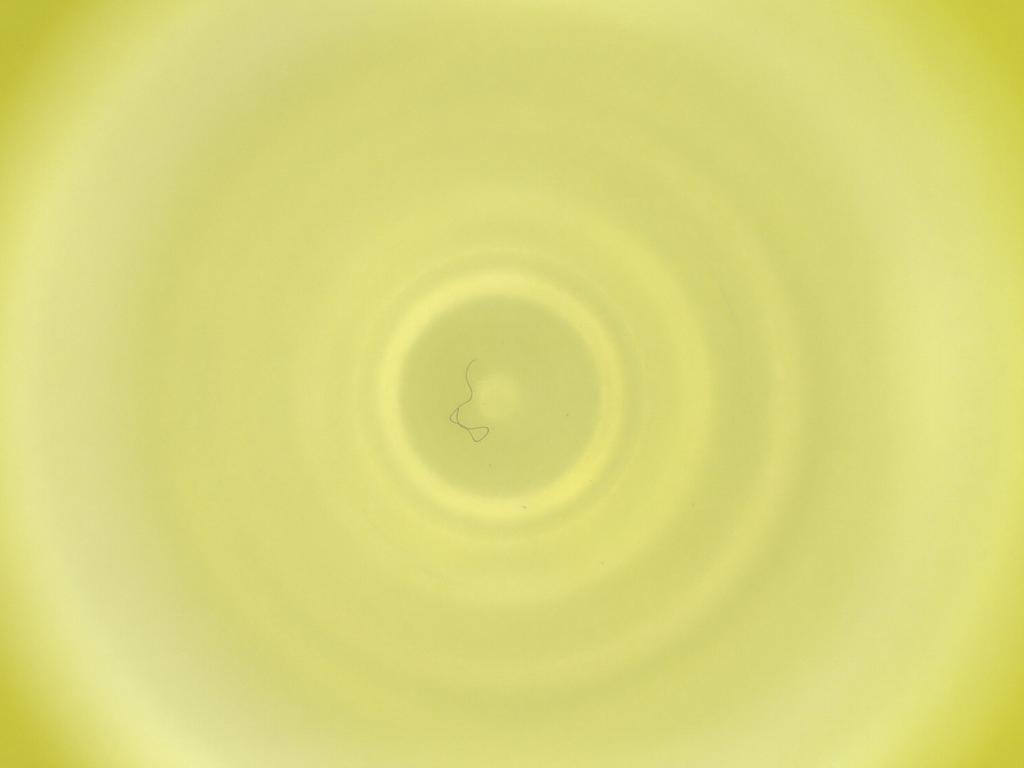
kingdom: Animalia
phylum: Arthropoda
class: Insecta
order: Diptera
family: Cecidomyiidae
